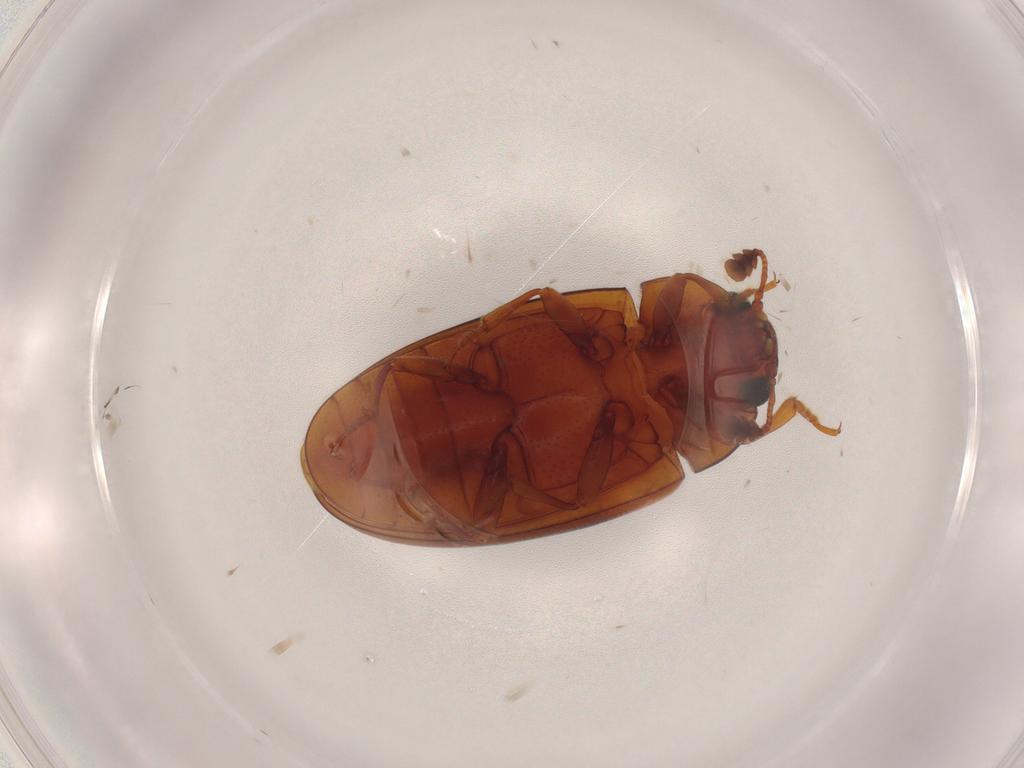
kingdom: Animalia
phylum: Arthropoda
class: Insecta
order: Coleoptera
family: Erotylidae
